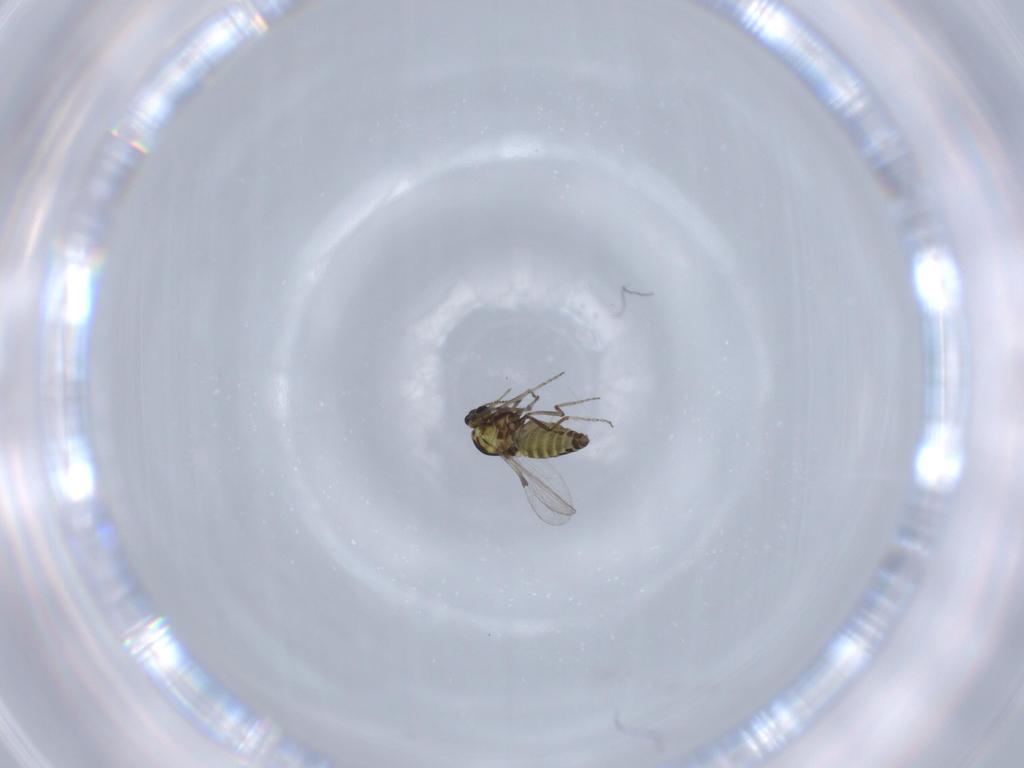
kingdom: Animalia
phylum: Arthropoda
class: Insecta
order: Diptera
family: Ceratopogonidae
